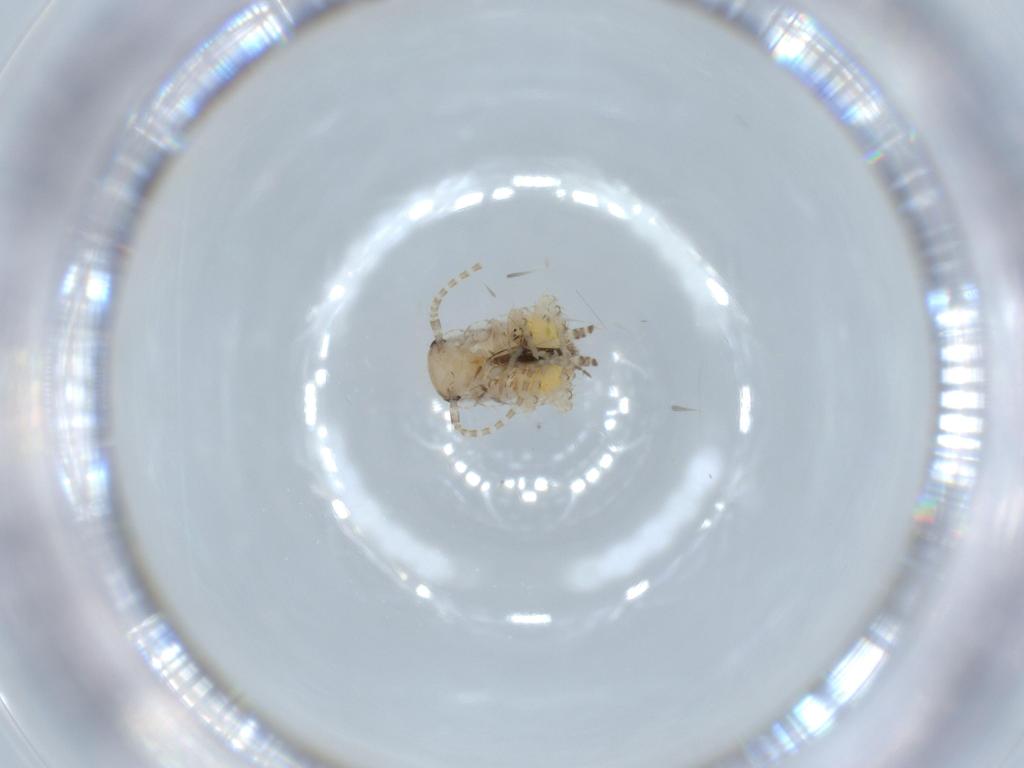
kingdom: Animalia
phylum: Arthropoda
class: Insecta
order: Blattodea
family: Ectobiidae
